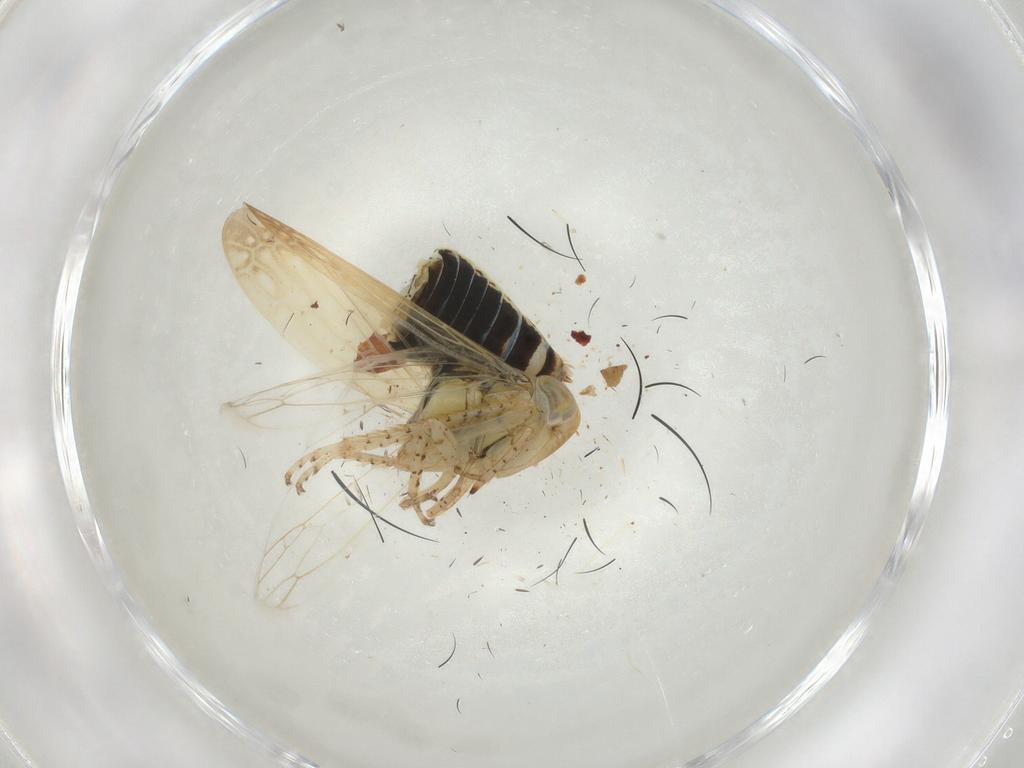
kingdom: Animalia
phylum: Arthropoda
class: Insecta
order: Hemiptera
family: Cicadellidae
